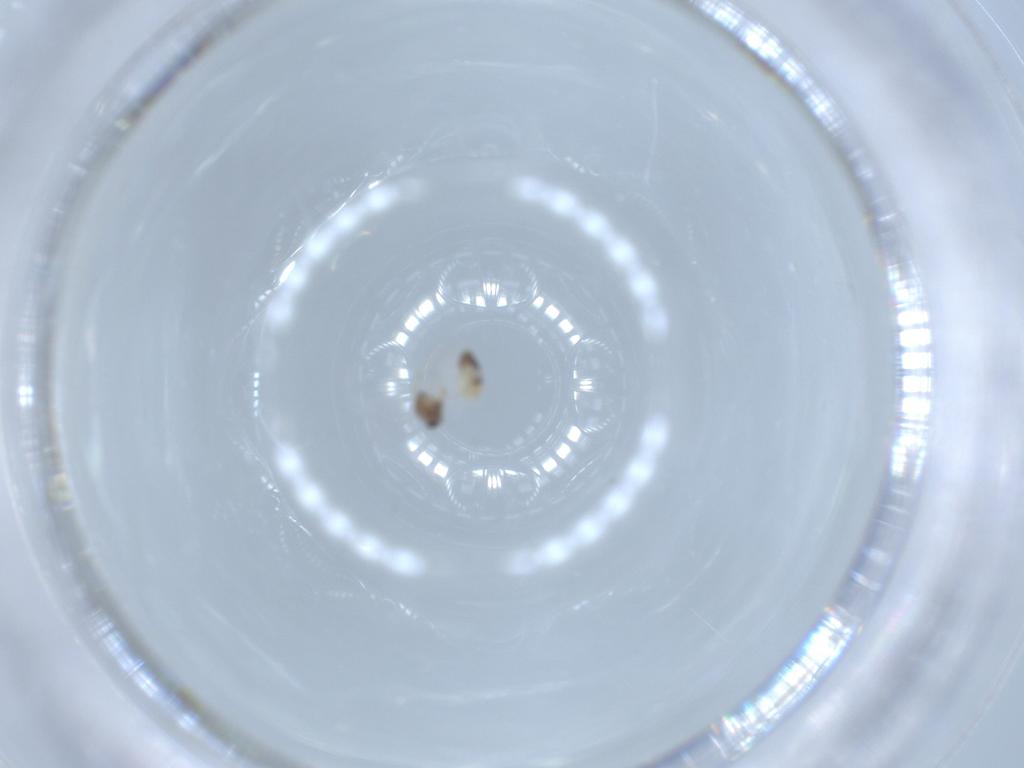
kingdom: Animalia
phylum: Arthropoda
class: Insecta
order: Diptera
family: Chironomidae
